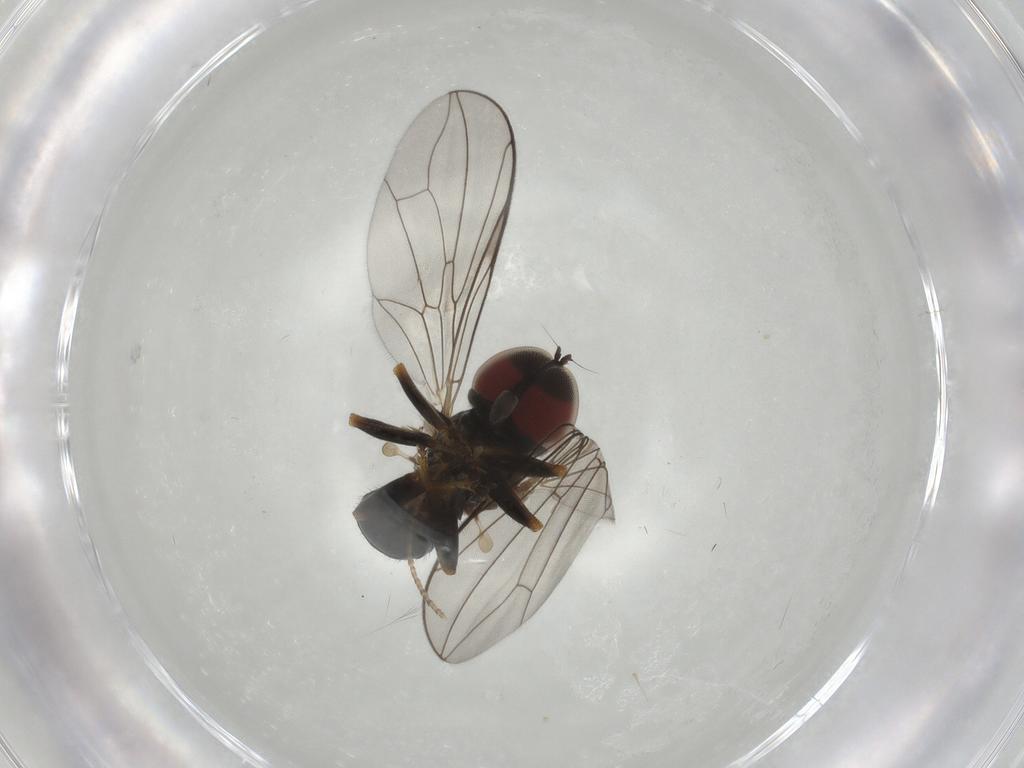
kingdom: Animalia
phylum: Arthropoda
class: Insecta
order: Diptera
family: Pipunculidae
